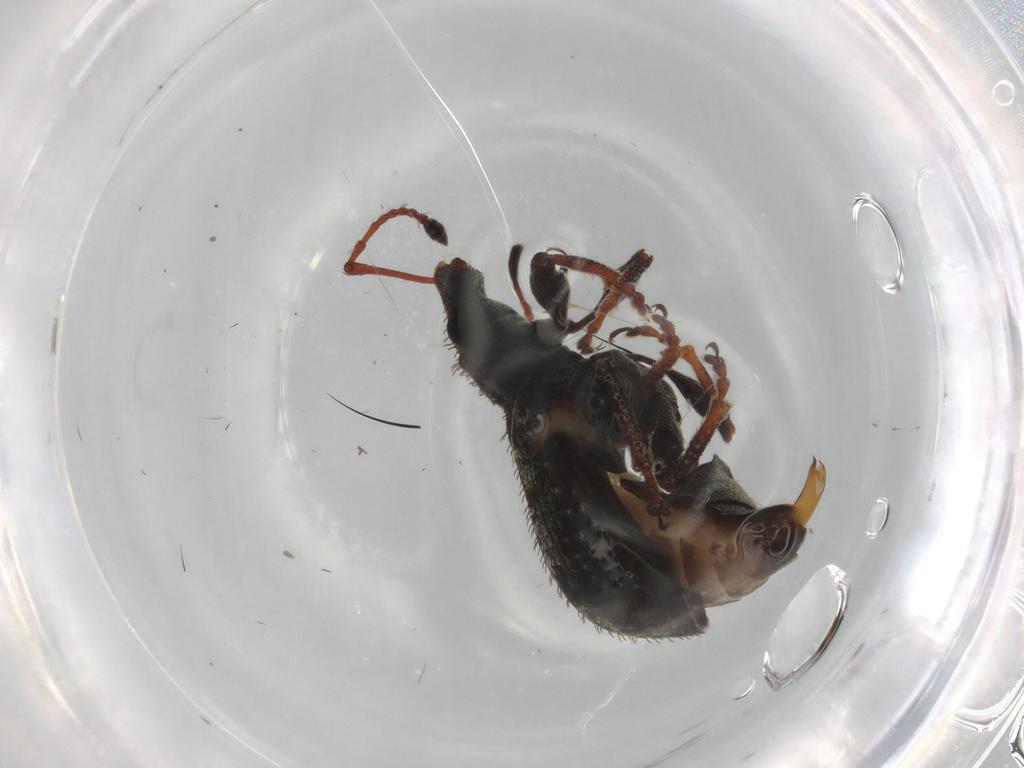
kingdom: Animalia
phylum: Arthropoda
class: Insecta
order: Coleoptera
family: Curculionidae
